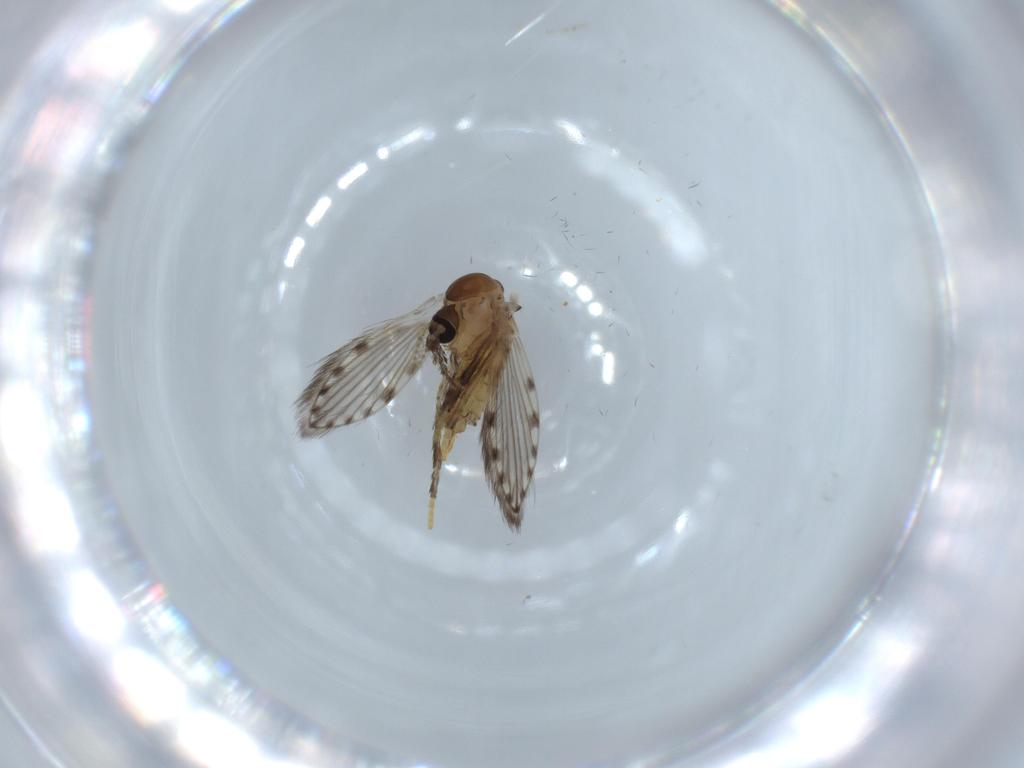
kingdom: Animalia
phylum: Arthropoda
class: Insecta
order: Diptera
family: Psychodidae
